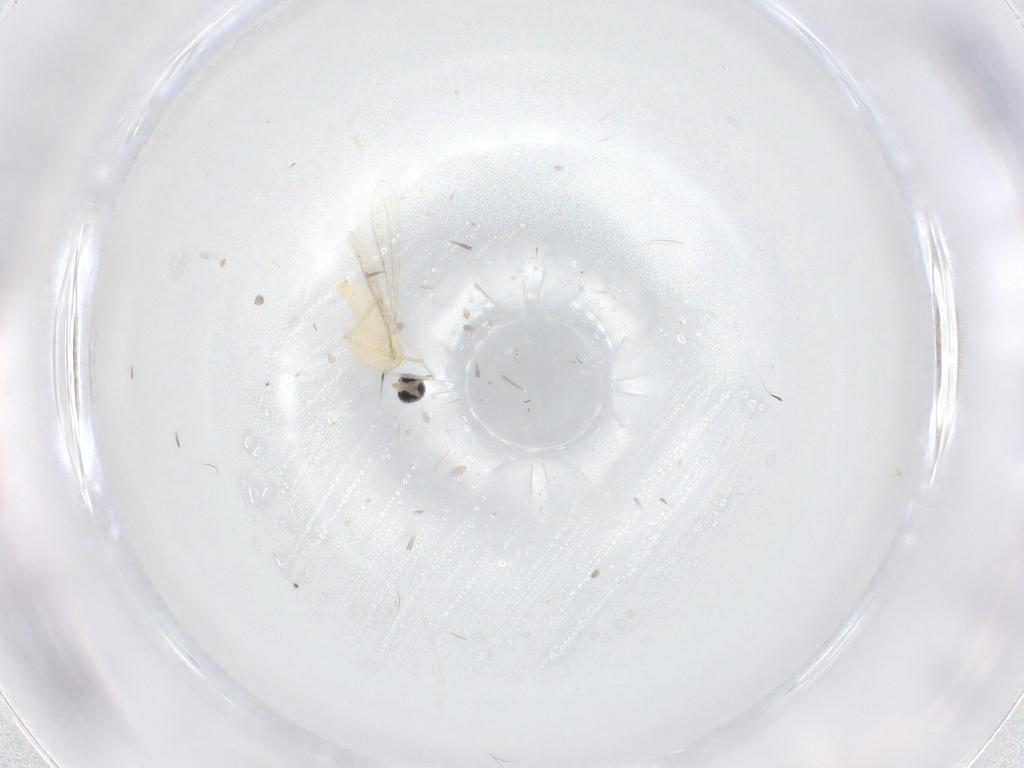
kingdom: Animalia
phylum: Arthropoda
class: Insecta
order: Diptera
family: Cecidomyiidae
